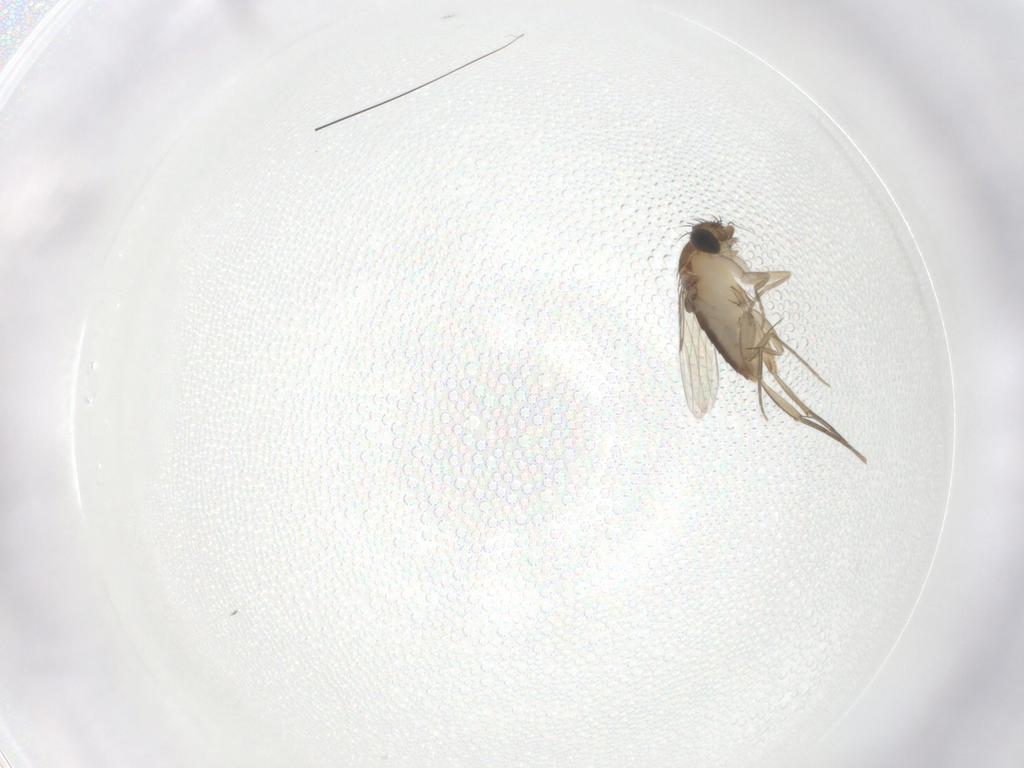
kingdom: Animalia
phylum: Arthropoda
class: Insecta
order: Diptera
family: Phoridae
